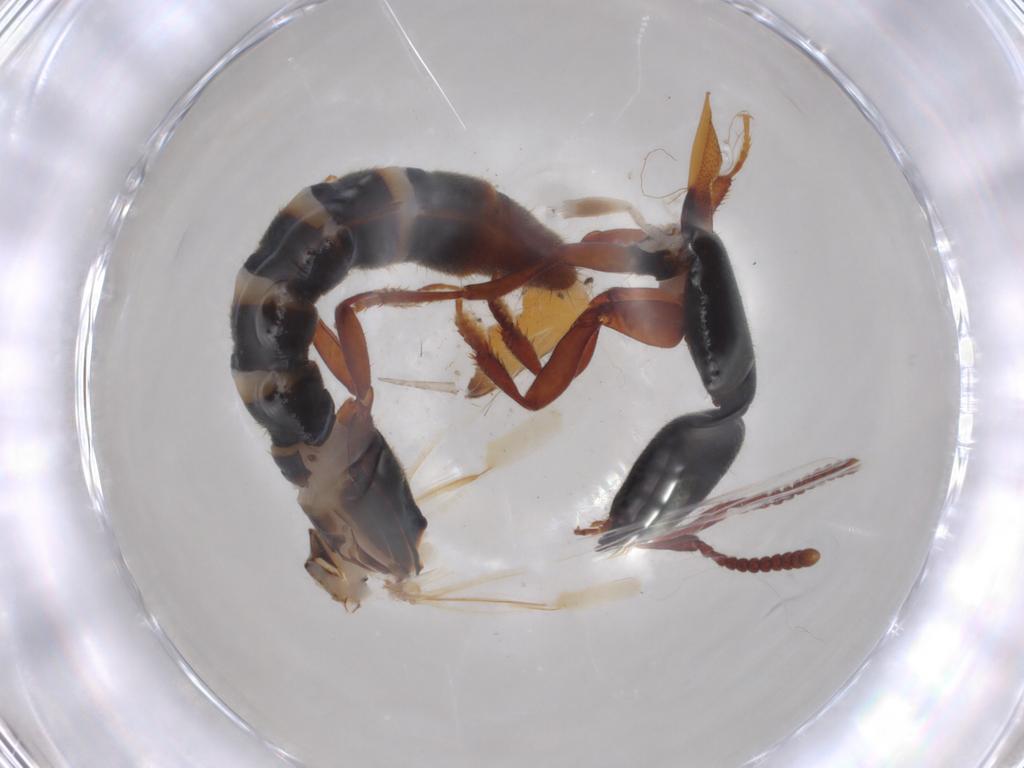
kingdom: Animalia
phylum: Arthropoda
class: Insecta
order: Coleoptera
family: Staphylinidae
